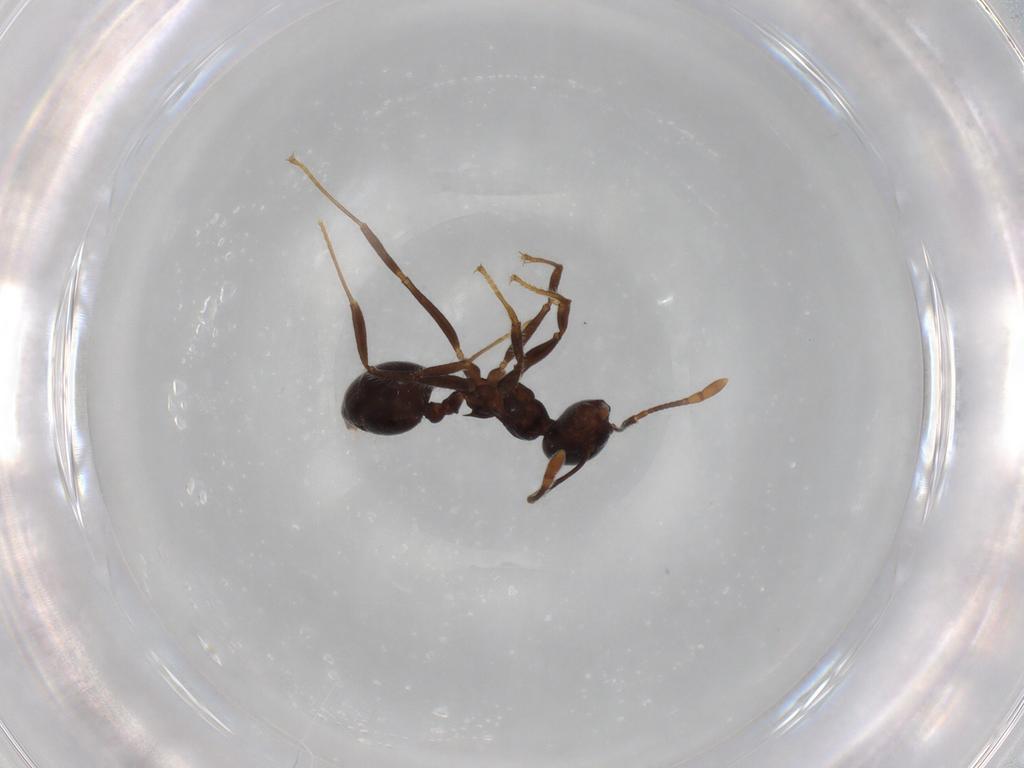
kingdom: Animalia
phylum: Arthropoda
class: Insecta
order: Hymenoptera
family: Formicidae
